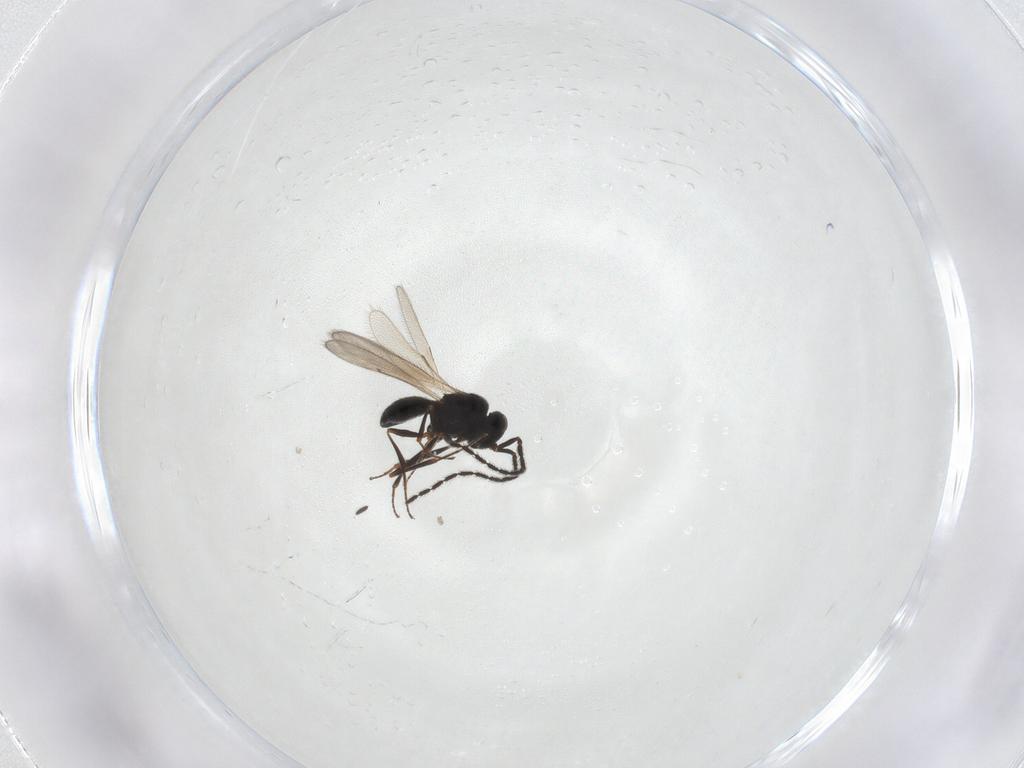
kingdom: Animalia
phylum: Arthropoda
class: Insecta
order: Hymenoptera
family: Scelionidae
